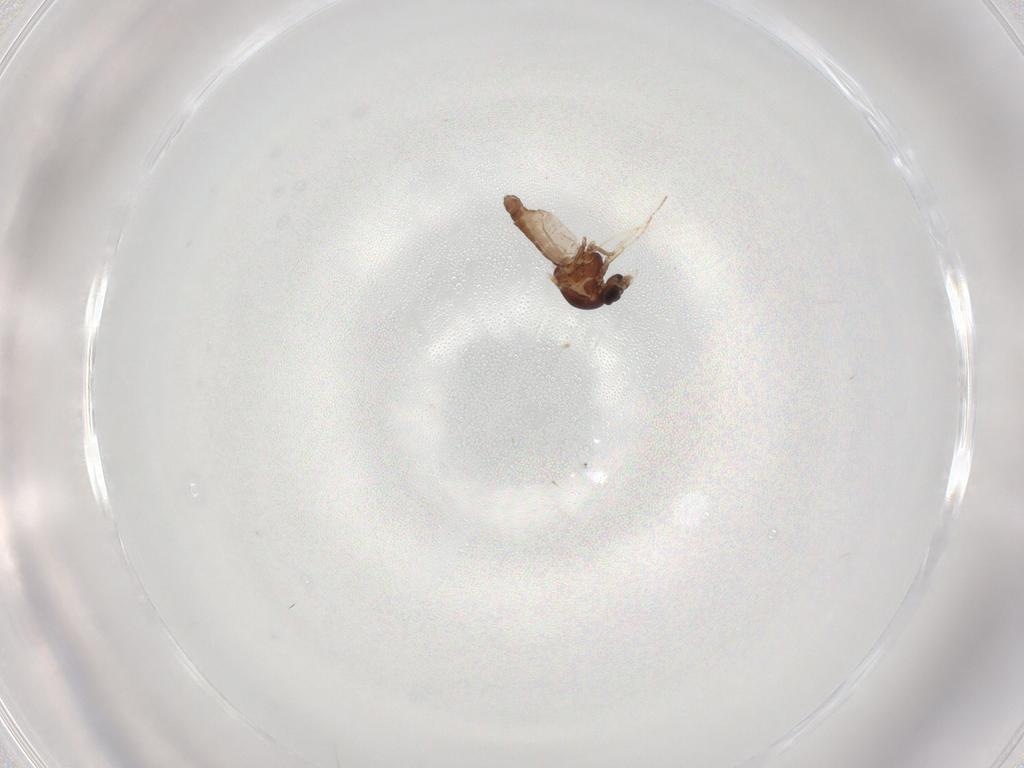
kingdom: Animalia
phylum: Arthropoda
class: Insecta
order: Diptera
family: Ceratopogonidae
